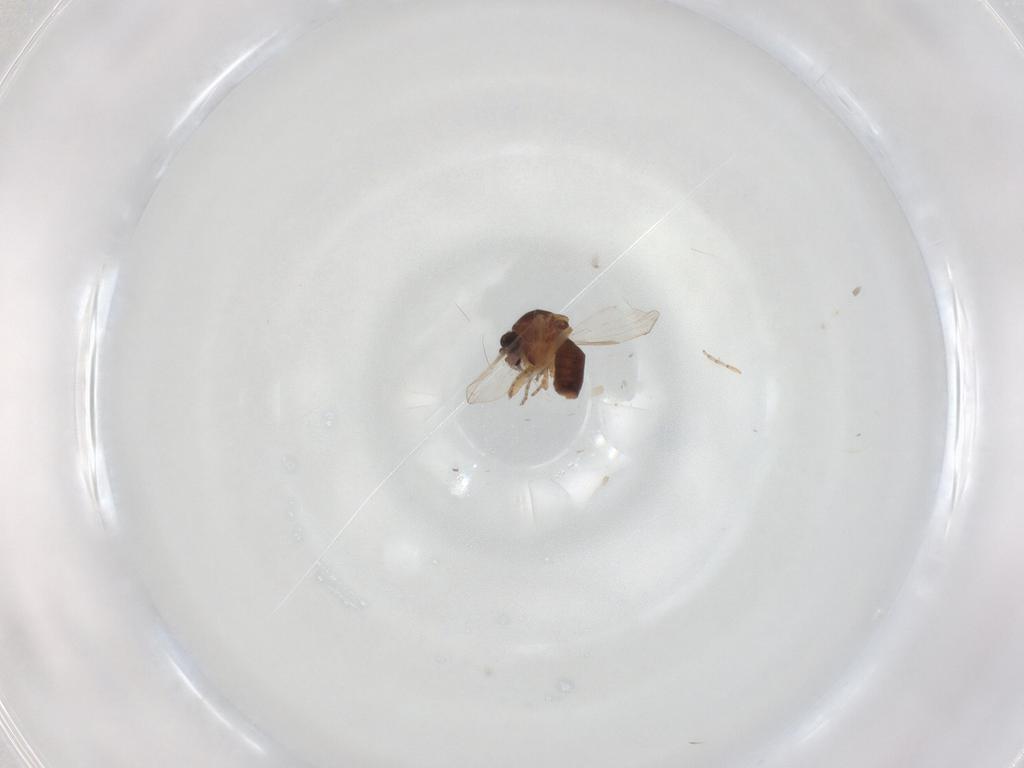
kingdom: Animalia
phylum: Arthropoda
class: Insecta
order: Diptera
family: Ceratopogonidae
